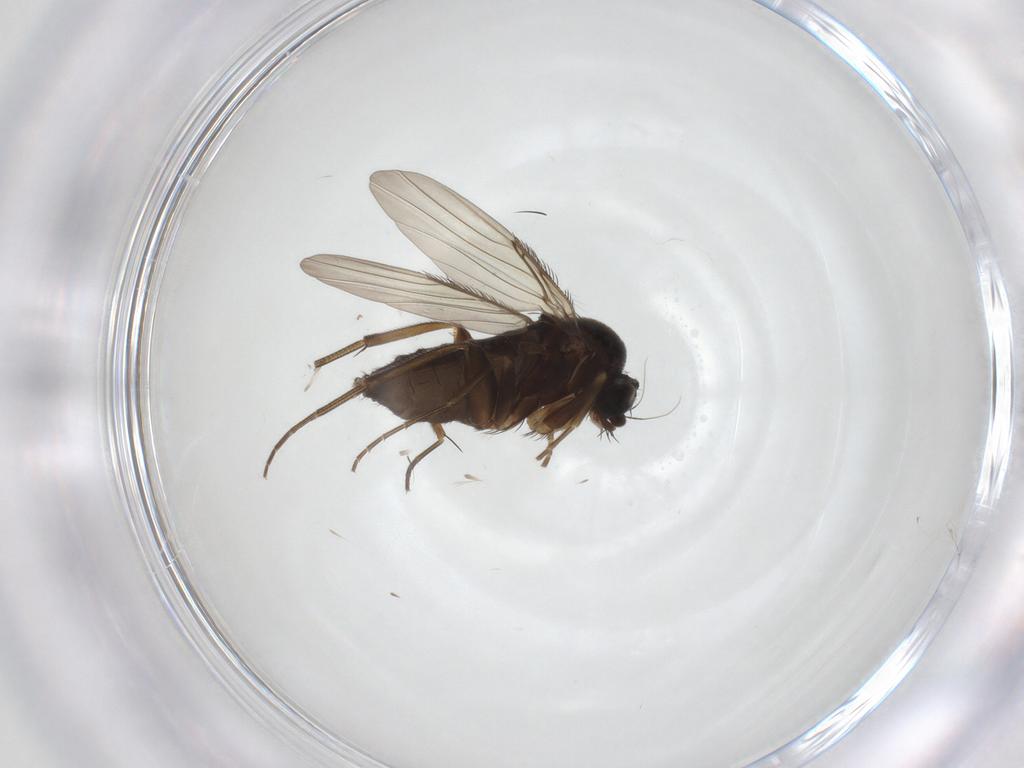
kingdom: Animalia
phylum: Arthropoda
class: Insecta
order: Diptera
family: Phoridae
